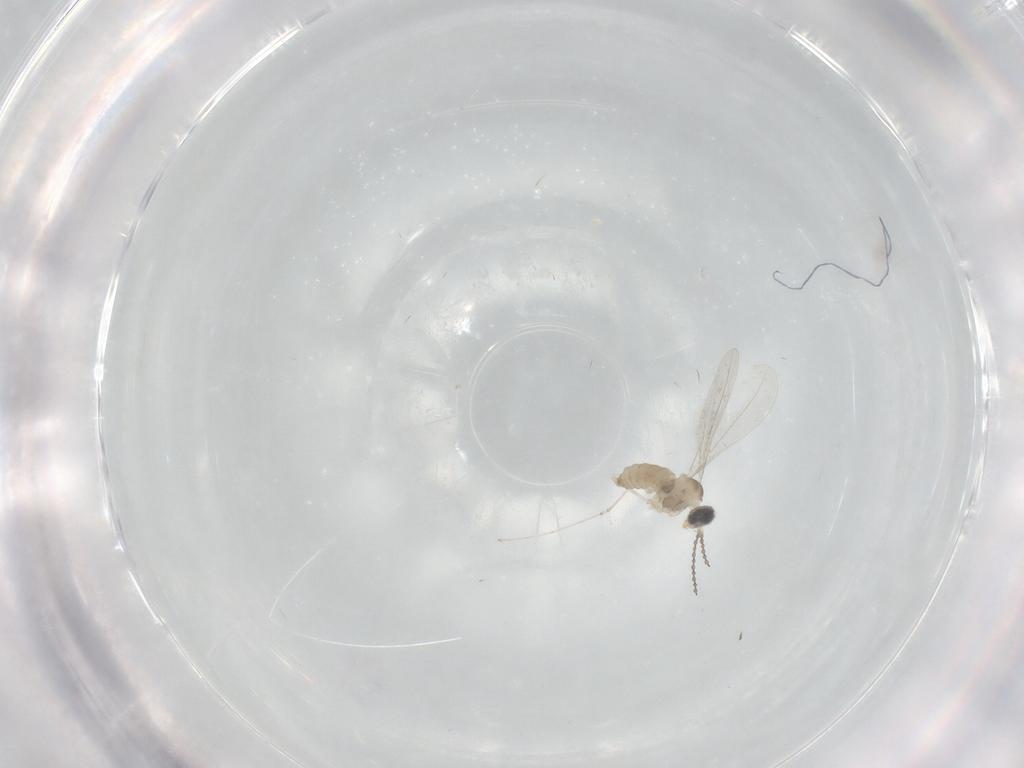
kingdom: Animalia
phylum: Arthropoda
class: Insecta
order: Diptera
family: Cecidomyiidae
